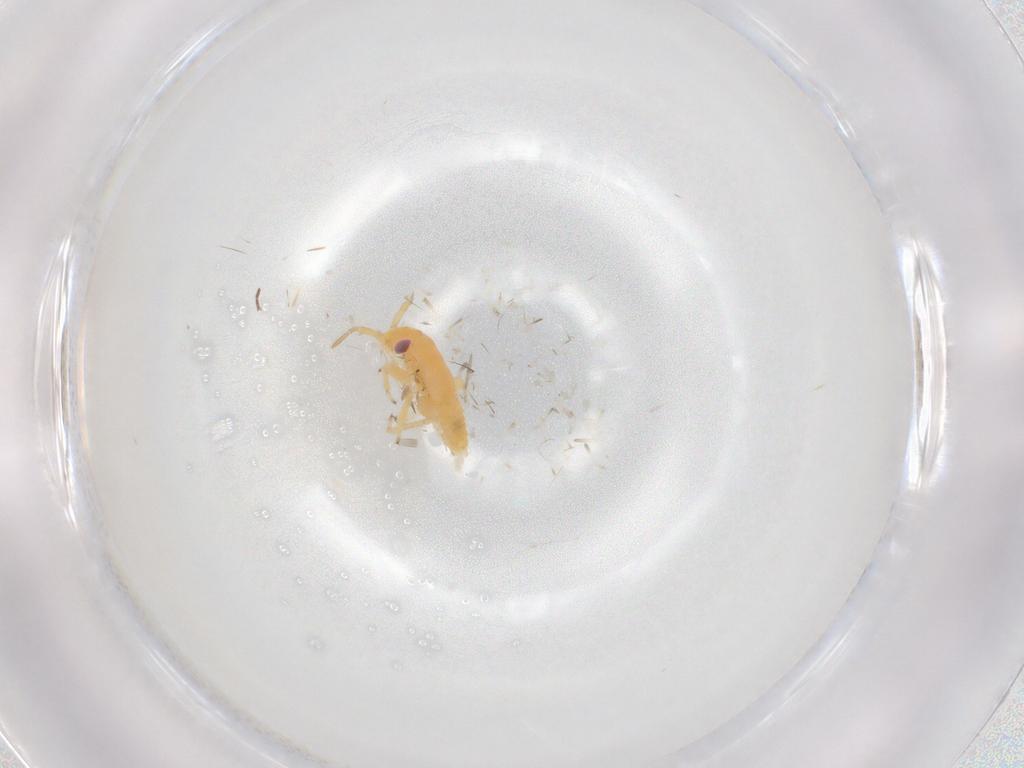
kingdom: Animalia
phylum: Arthropoda
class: Insecta
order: Hemiptera
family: Miridae
